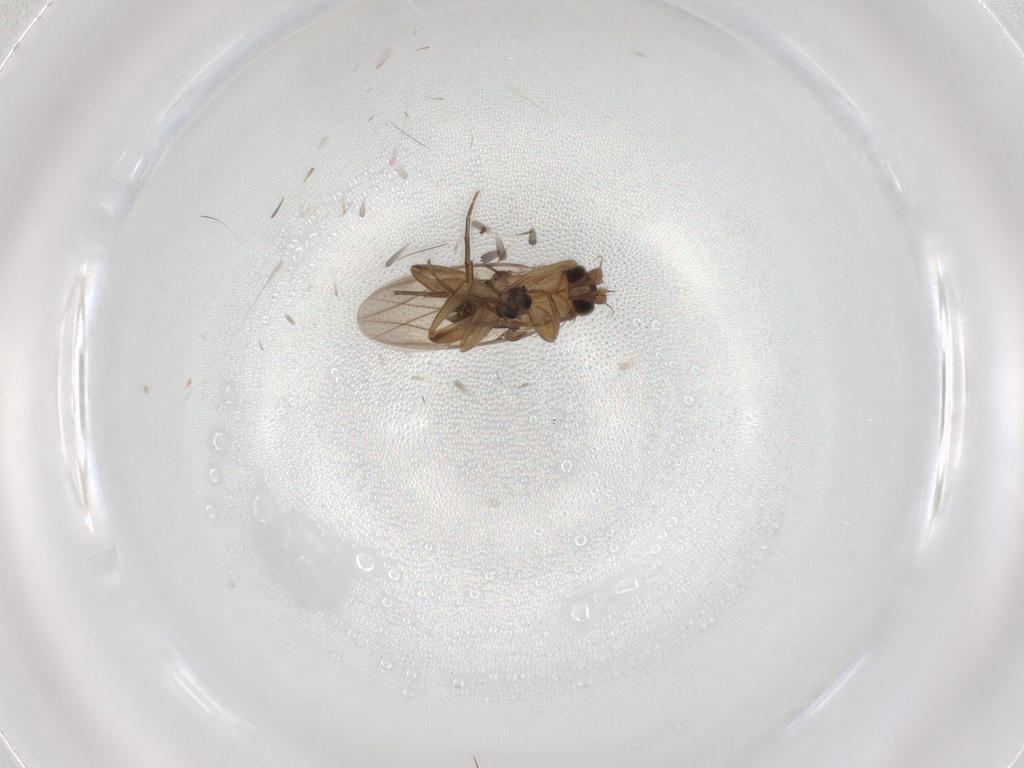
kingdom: Animalia
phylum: Arthropoda
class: Insecta
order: Diptera
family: Phoridae
